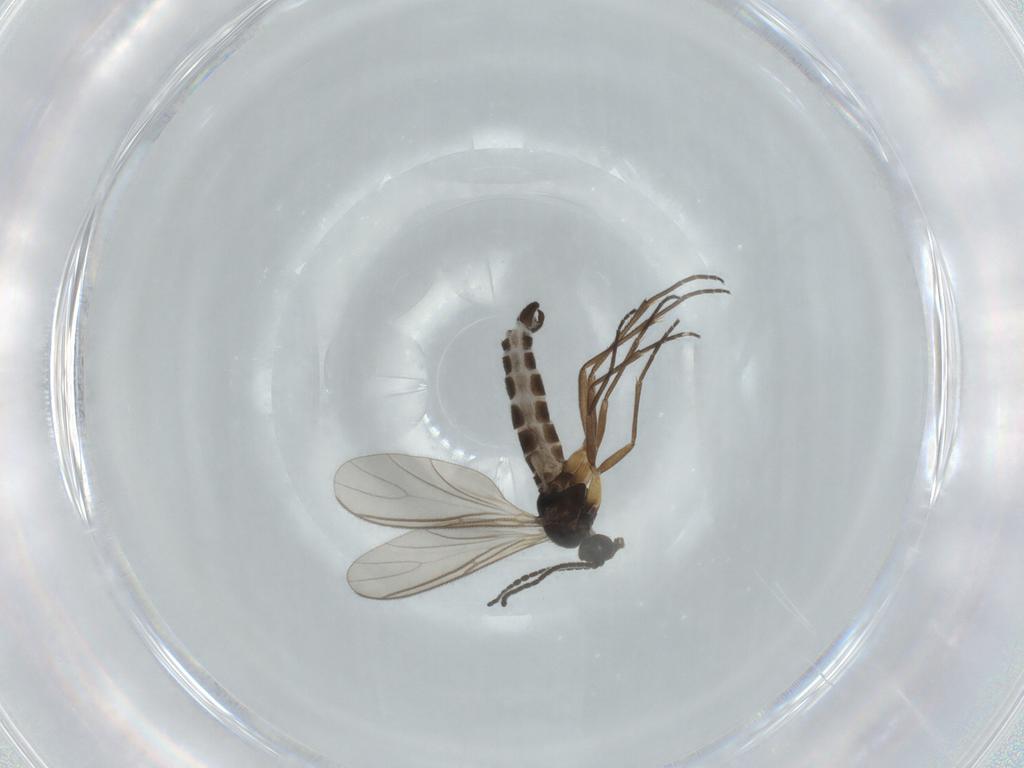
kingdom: Animalia
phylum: Arthropoda
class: Insecta
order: Diptera
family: Sciaridae
